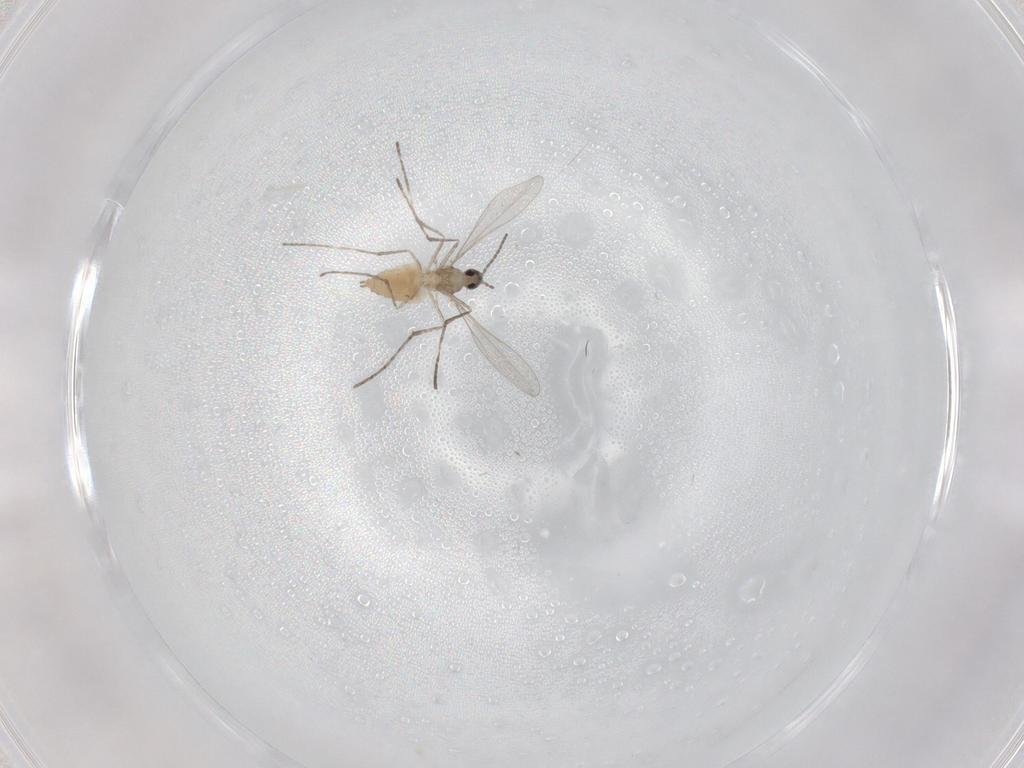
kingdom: Animalia
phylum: Arthropoda
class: Insecta
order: Diptera
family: Cecidomyiidae
